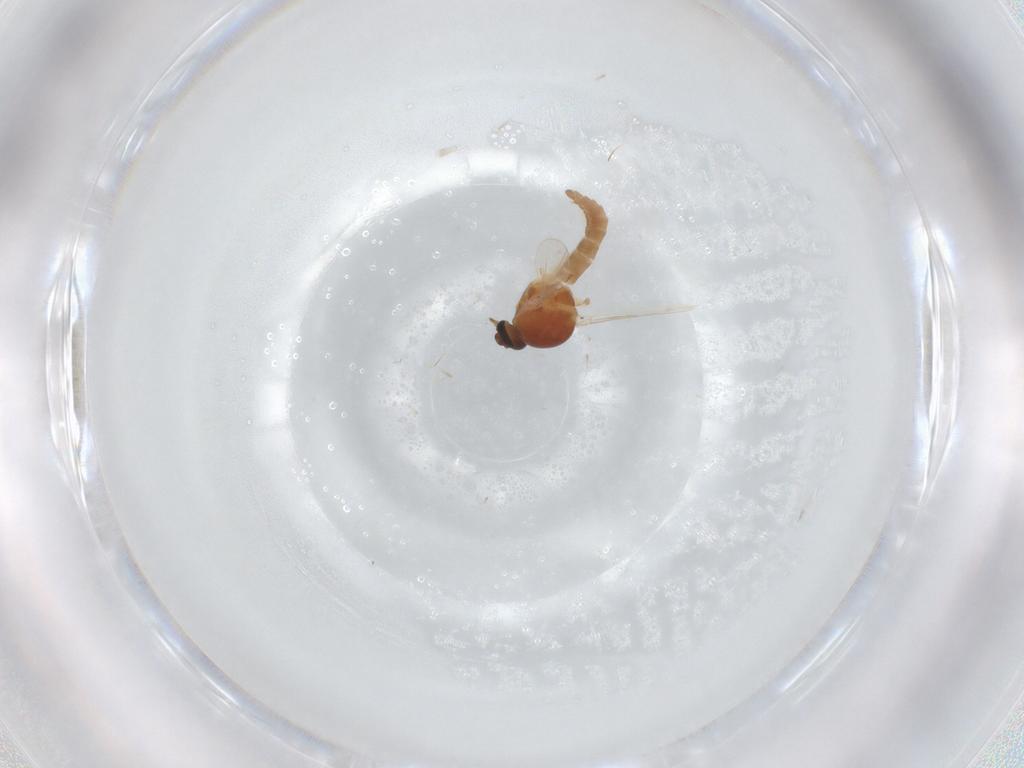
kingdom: Animalia
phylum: Arthropoda
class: Insecta
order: Diptera
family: Ceratopogonidae
